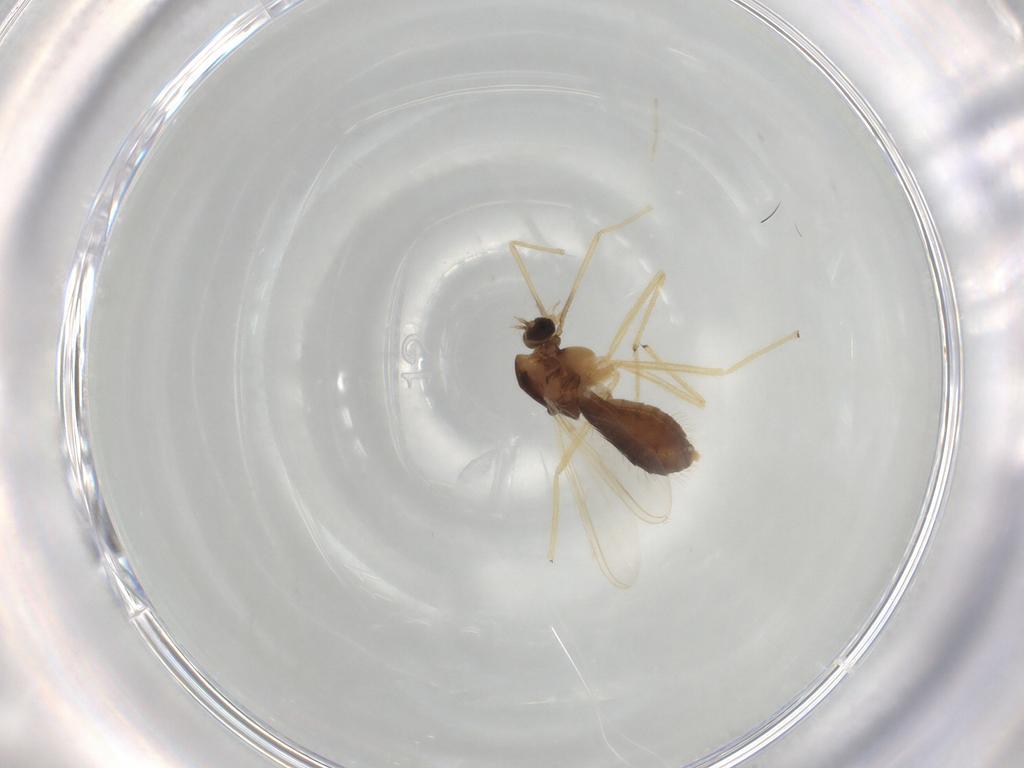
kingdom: Animalia
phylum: Arthropoda
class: Insecta
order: Diptera
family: Chironomidae
